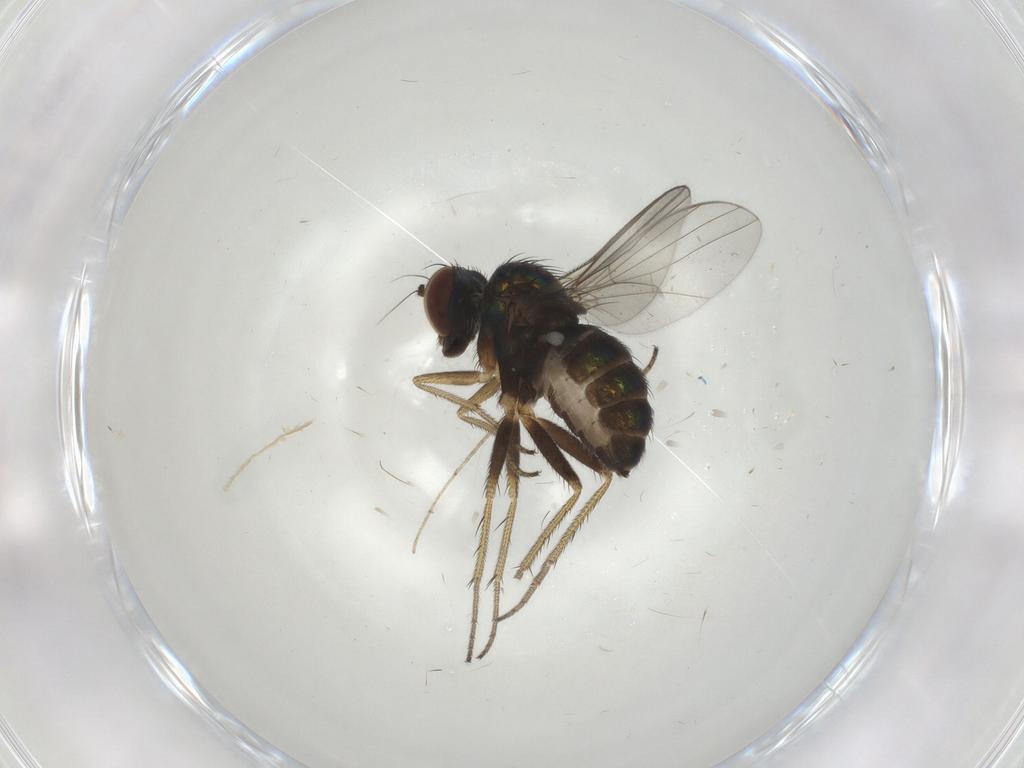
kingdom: Animalia
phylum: Arthropoda
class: Insecta
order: Diptera
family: Dolichopodidae
